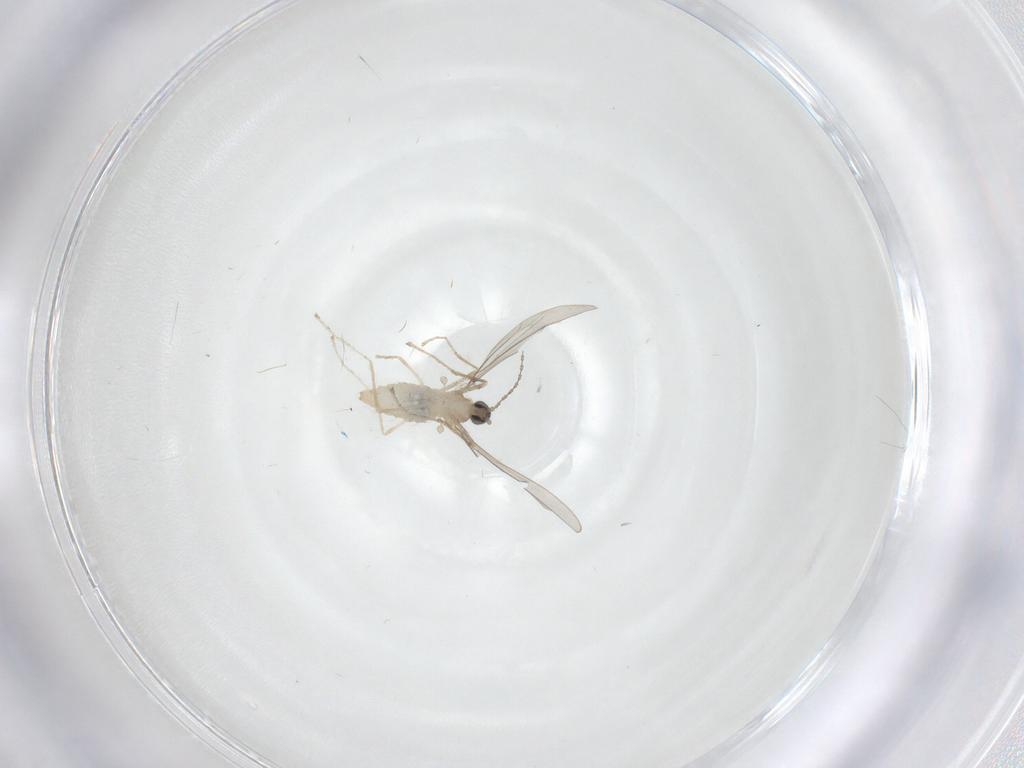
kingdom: Animalia
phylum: Arthropoda
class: Insecta
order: Diptera
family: Cecidomyiidae
